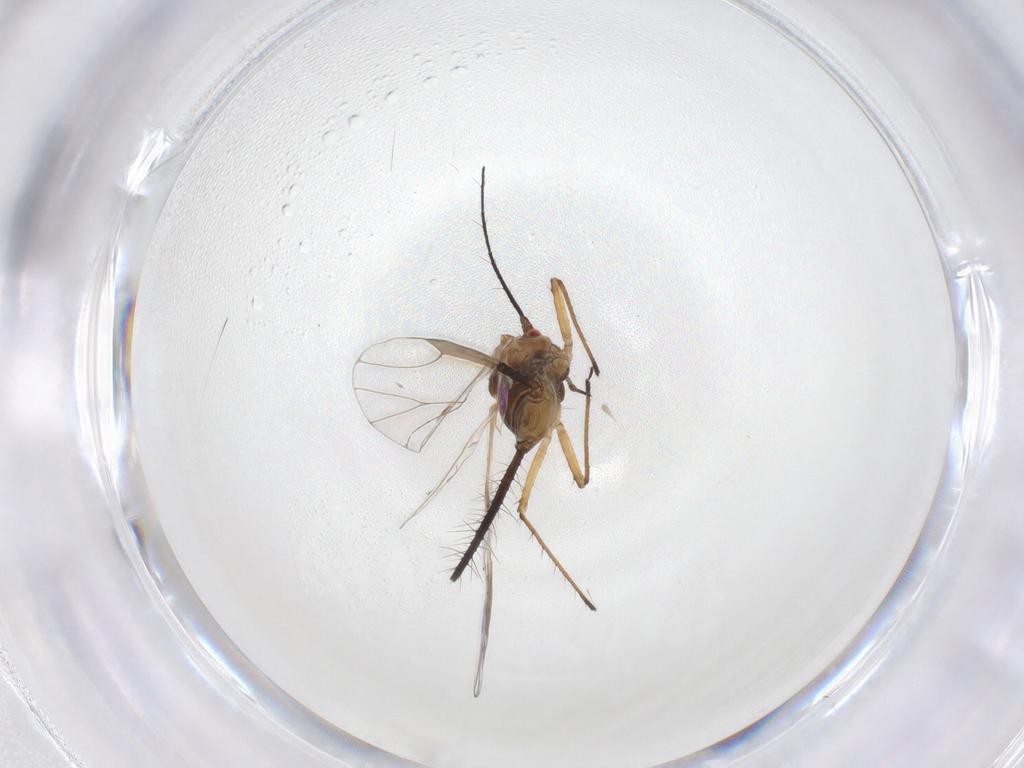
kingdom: Animalia
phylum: Arthropoda
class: Insecta
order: Hemiptera
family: Aphididae
